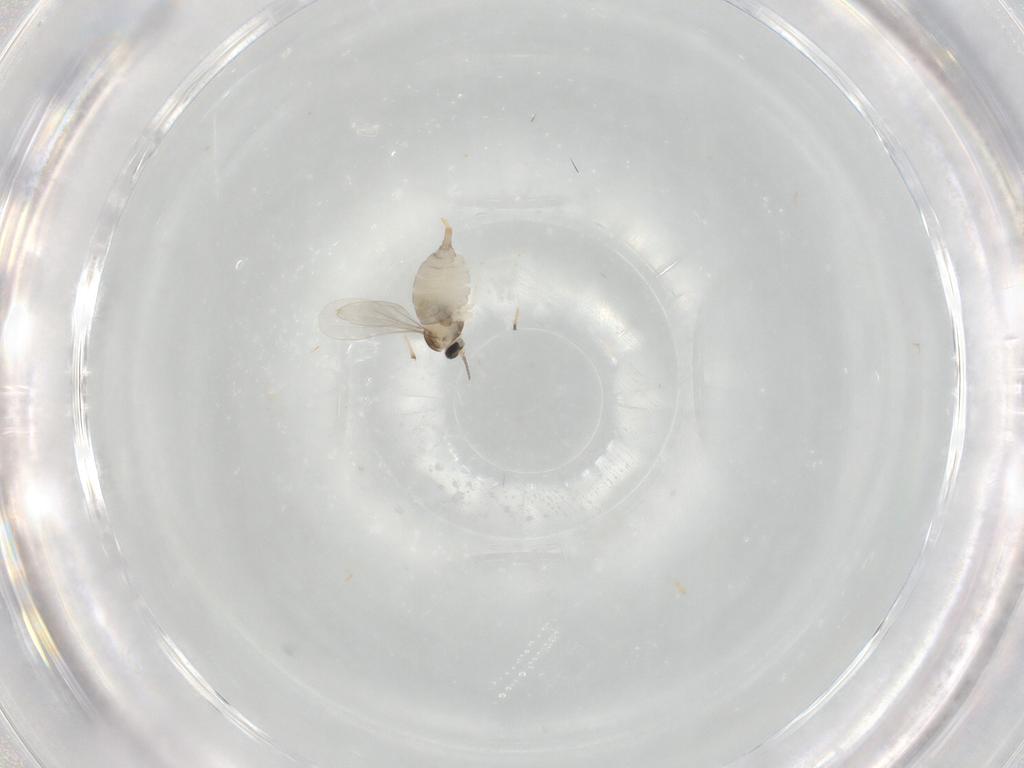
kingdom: Animalia
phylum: Arthropoda
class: Insecta
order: Diptera
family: Chironomidae
